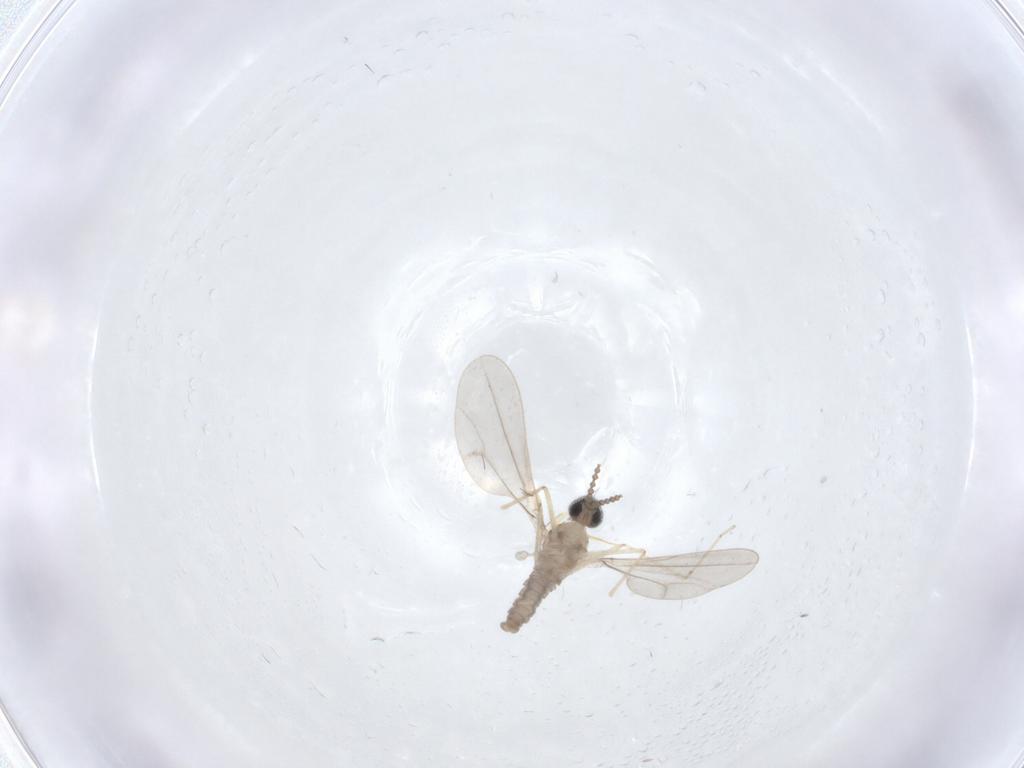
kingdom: Animalia
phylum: Arthropoda
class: Insecta
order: Diptera
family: Cecidomyiidae
